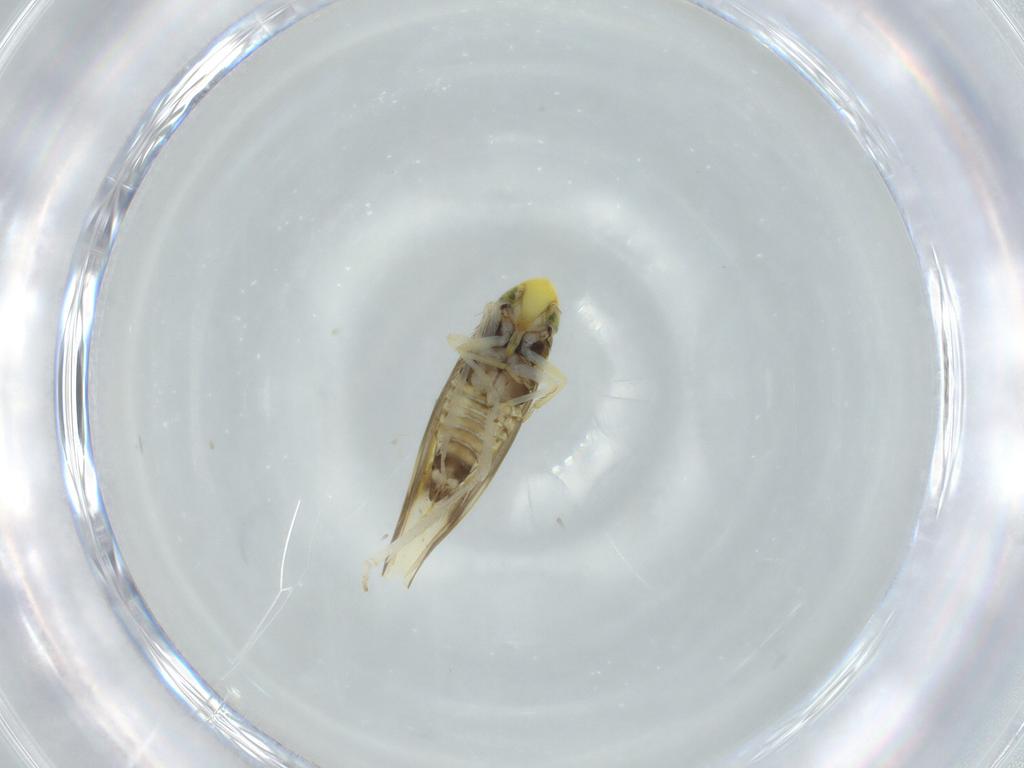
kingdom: Animalia
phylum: Arthropoda
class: Insecta
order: Hemiptera
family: Cicadellidae
